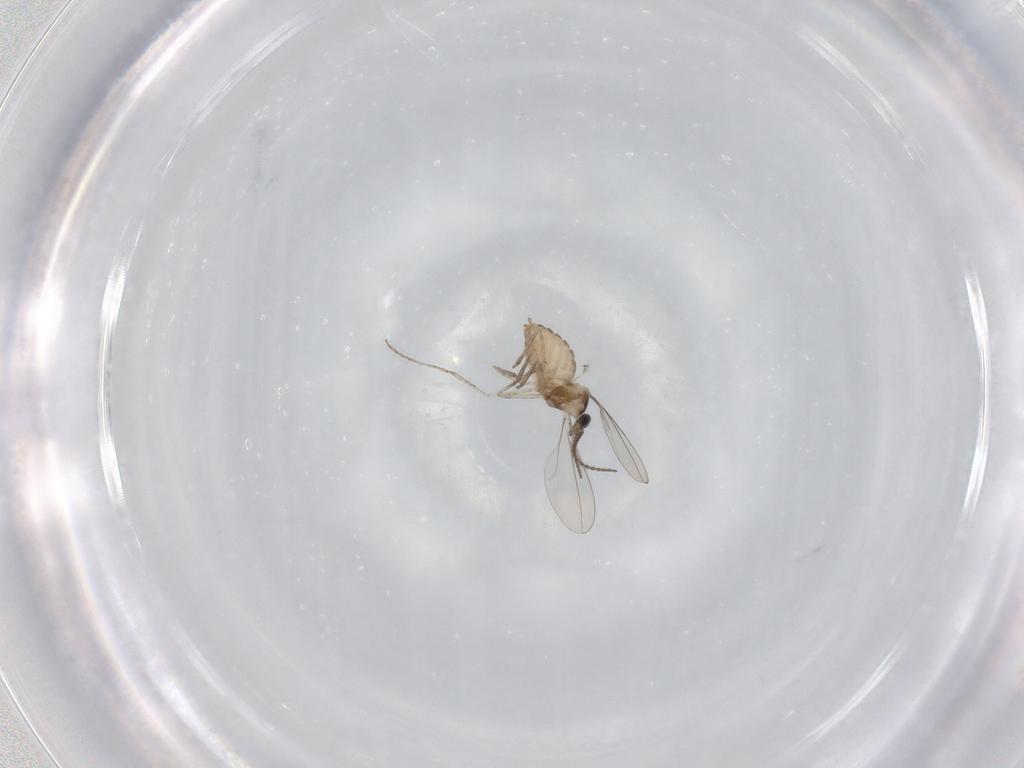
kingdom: Animalia
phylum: Arthropoda
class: Insecta
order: Diptera
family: Cecidomyiidae
